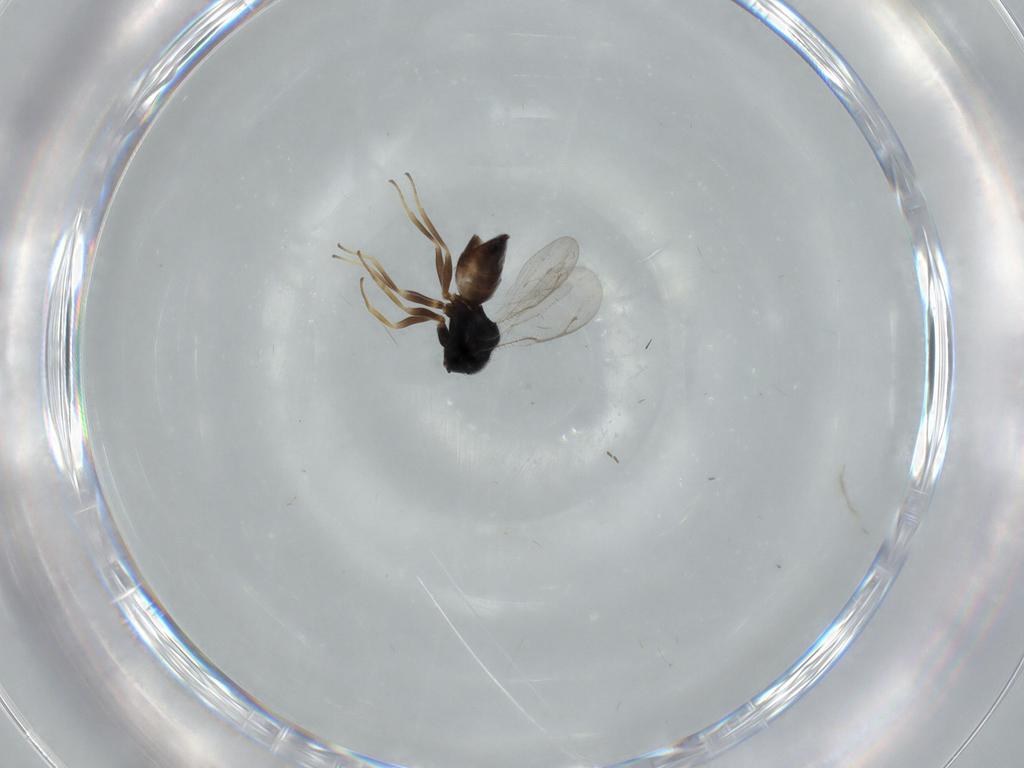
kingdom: Animalia
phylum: Arthropoda
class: Insecta
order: Hymenoptera
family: Pteromalidae
